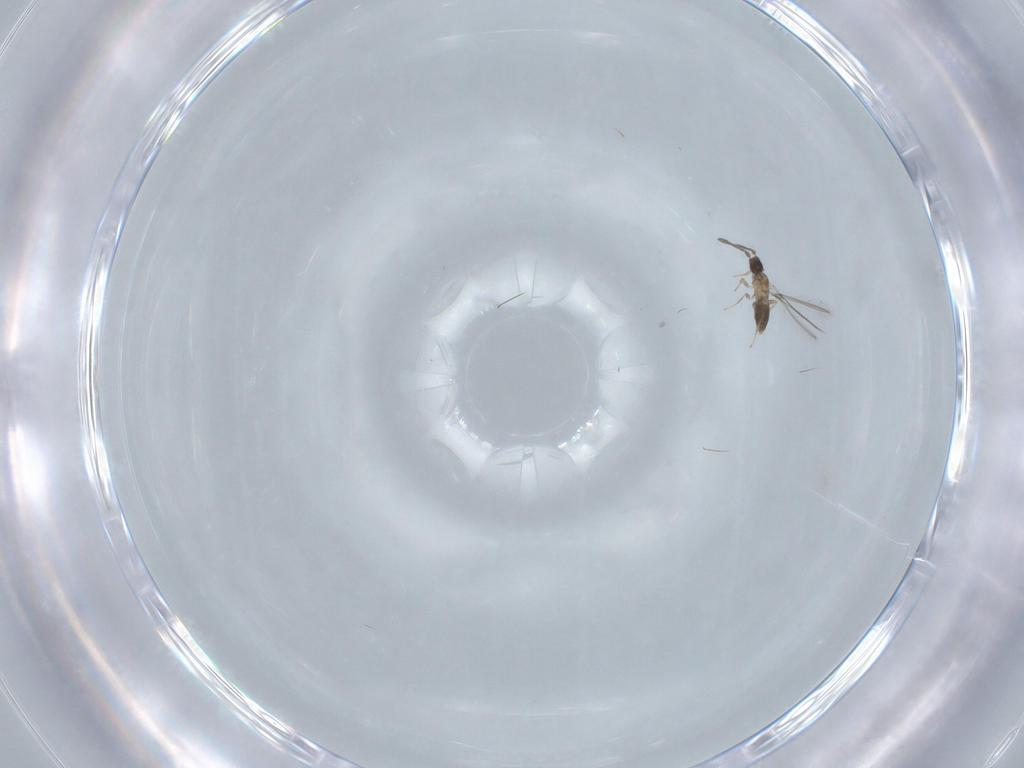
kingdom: Animalia
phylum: Arthropoda
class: Insecta
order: Hymenoptera
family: Mymaridae
